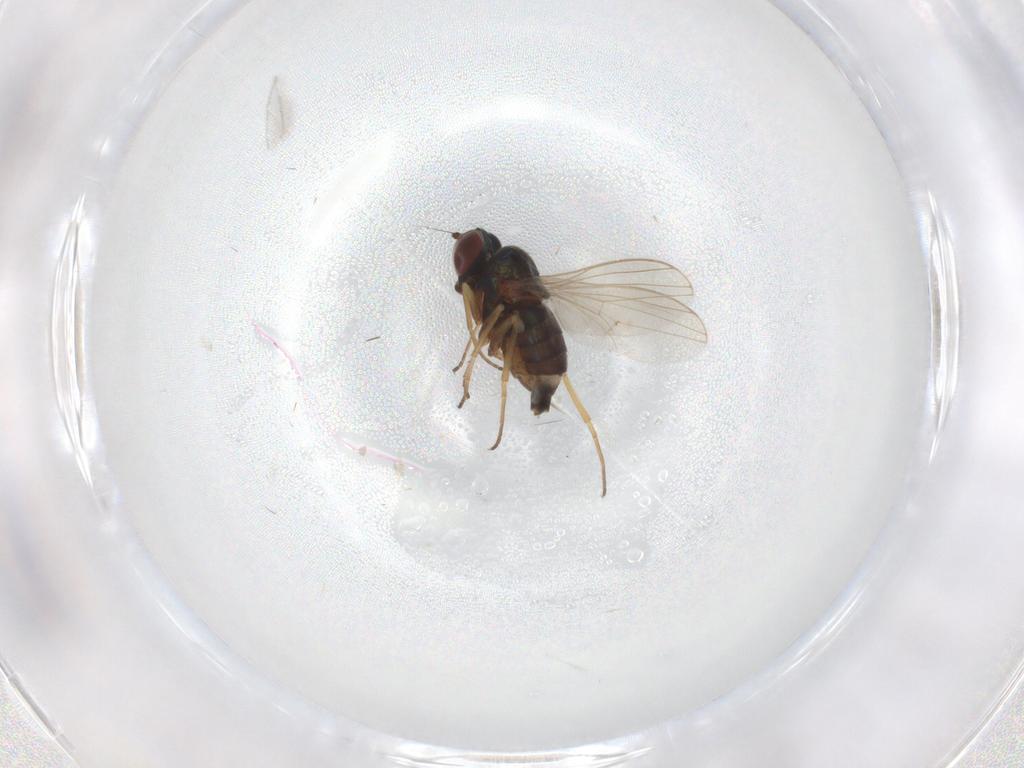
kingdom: Animalia
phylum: Arthropoda
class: Insecta
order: Diptera
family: Dolichopodidae
